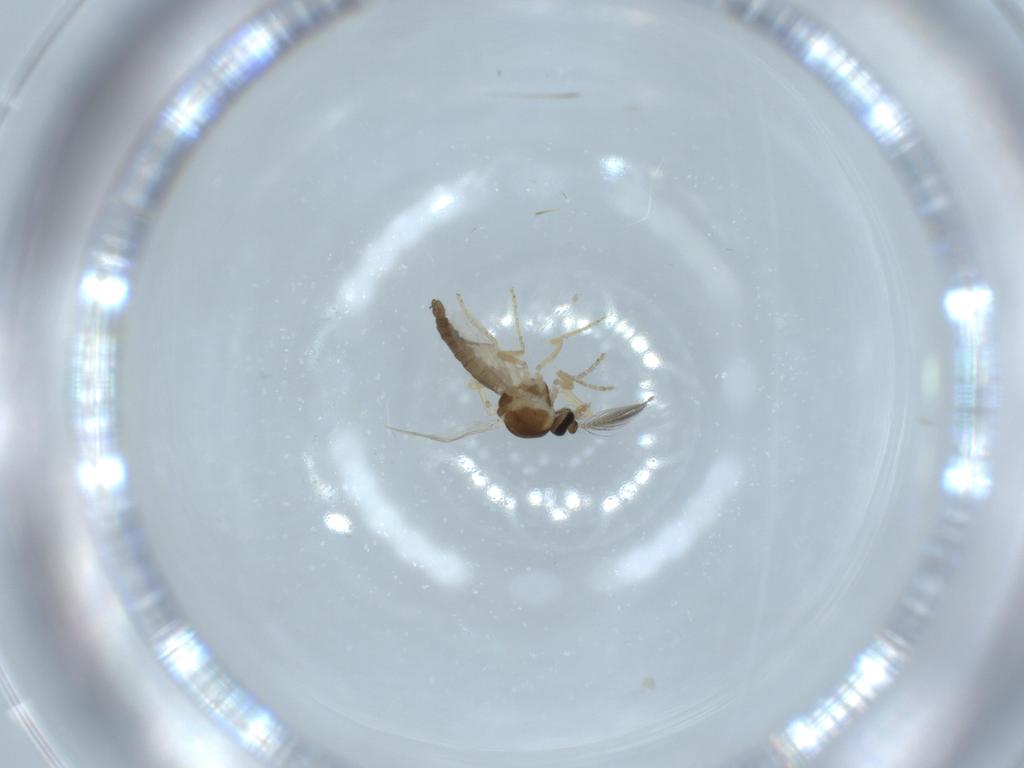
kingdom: Animalia
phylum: Arthropoda
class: Insecta
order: Diptera
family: Ceratopogonidae
